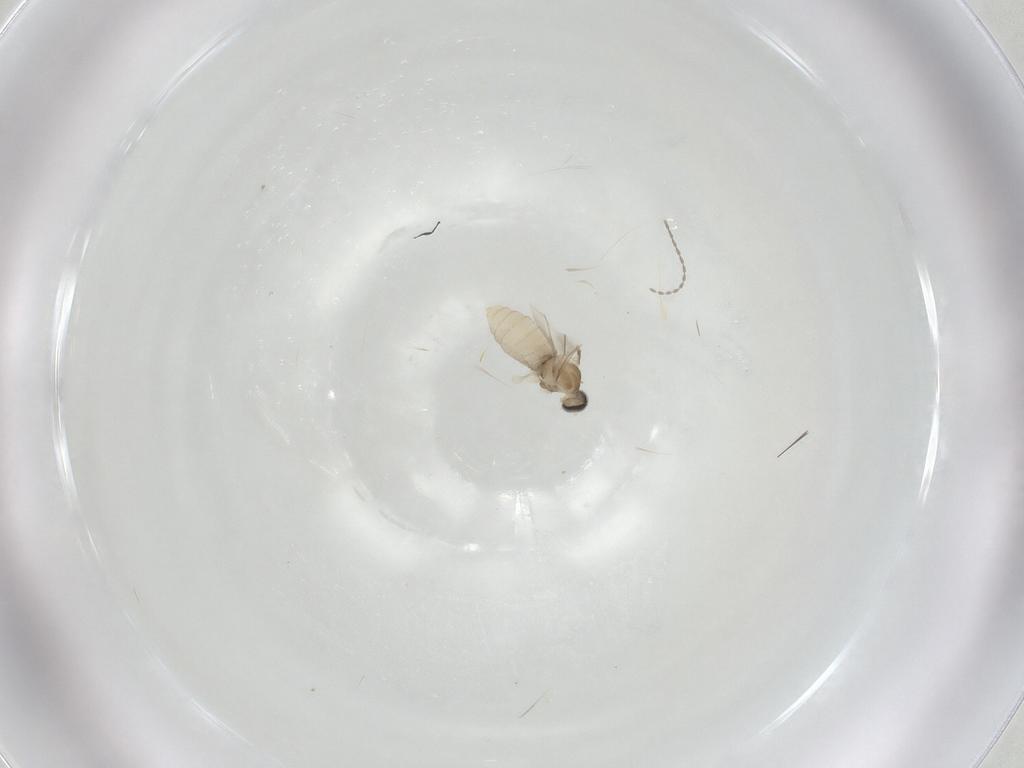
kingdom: Animalia
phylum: Arthropoda
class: Insecta
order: Diptera
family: Cecidomyiidae
